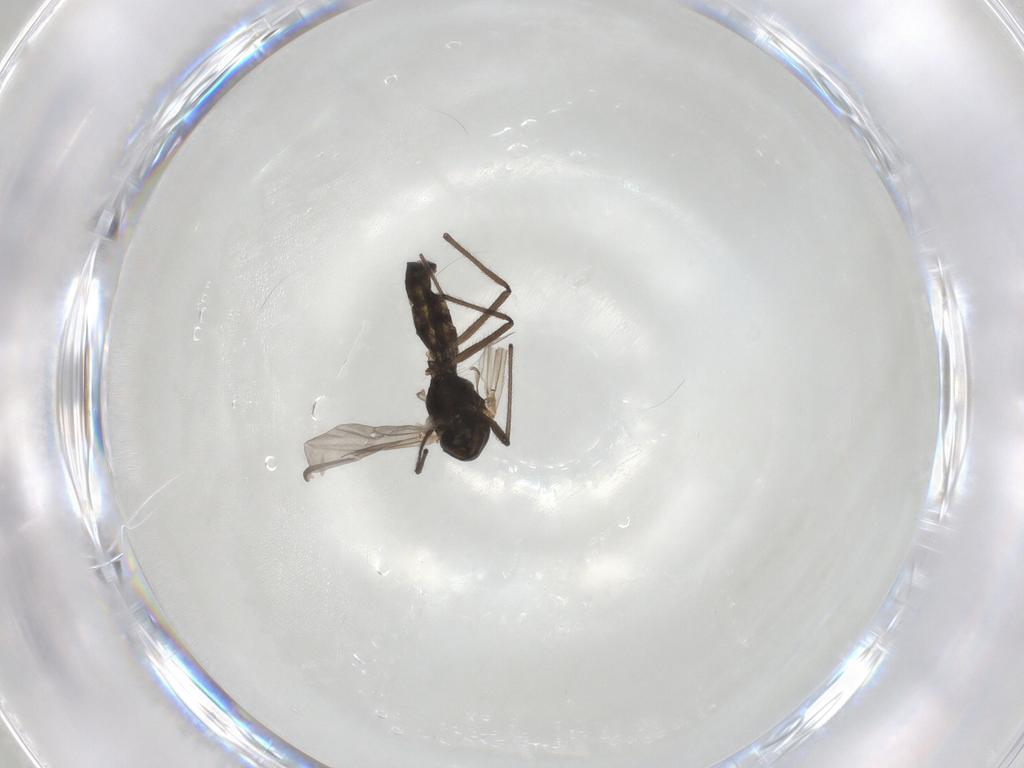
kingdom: Animalia
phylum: Arthropoda
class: Insecta
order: Diptera
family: Chironomidae
